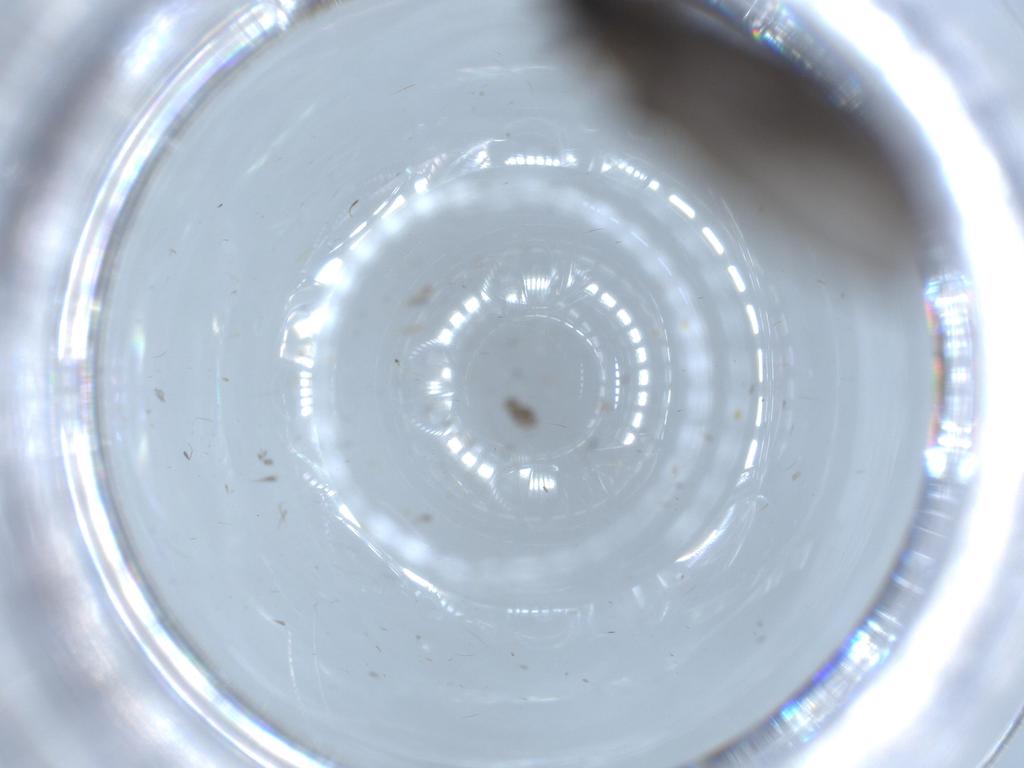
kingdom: Animalia
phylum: Arthropoda
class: Insecta
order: Diptera
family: Sciaridae
